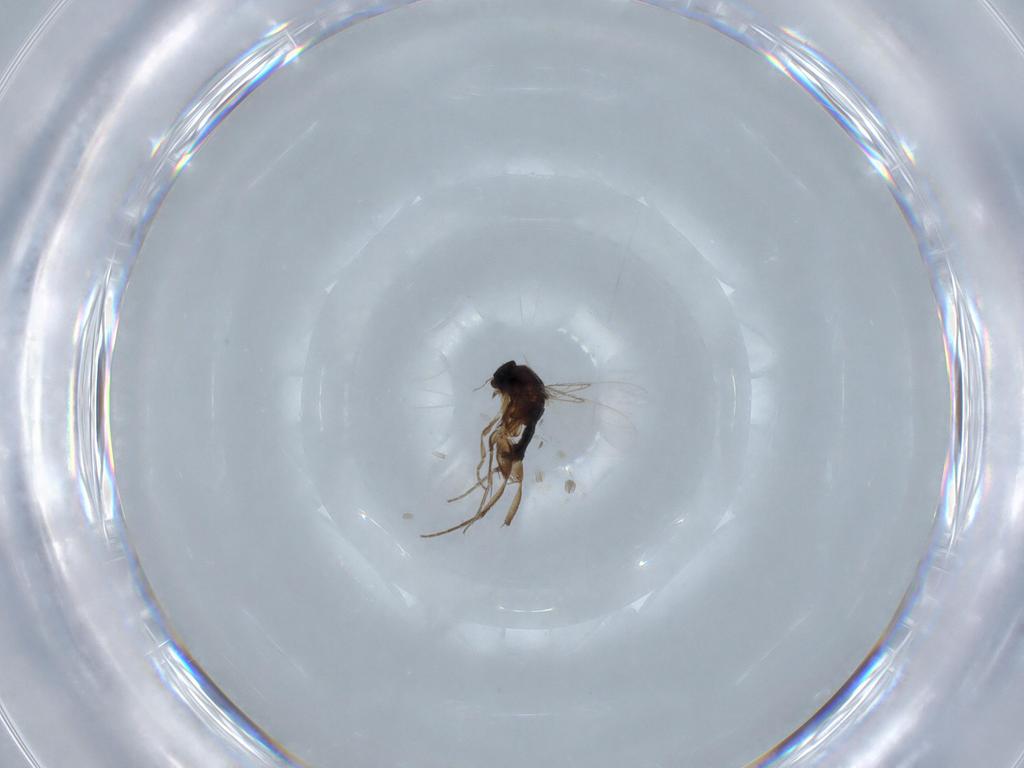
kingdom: Animalia
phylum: Arthropoda
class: Insecta
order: Diptera
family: Phoridae
